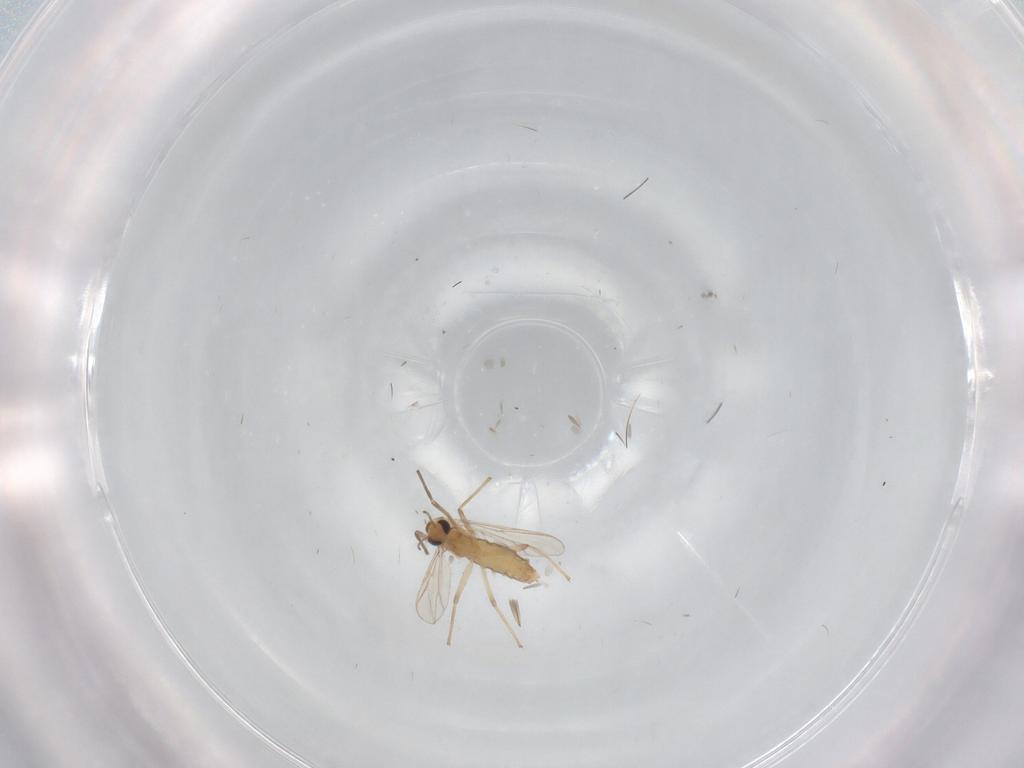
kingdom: Animalia
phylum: Arthropoda
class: Insecta
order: Diptera
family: Chironomidae
